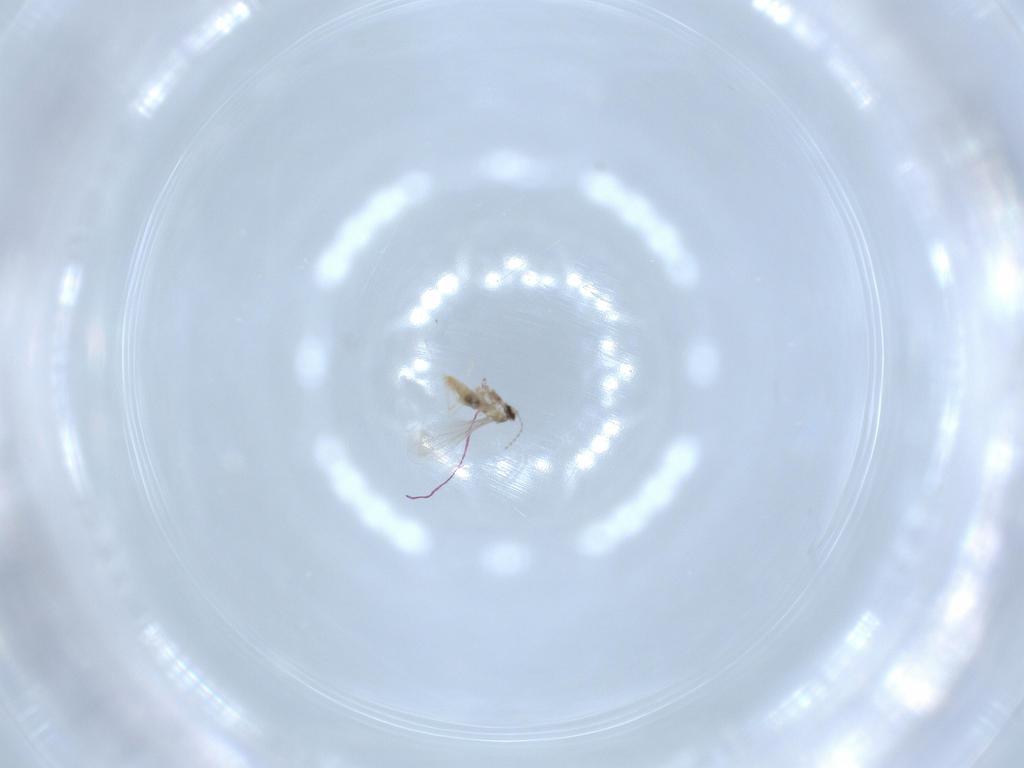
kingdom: Animalia
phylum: Arthropoda
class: Insecta
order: Diptera
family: Cecidomyiidae
